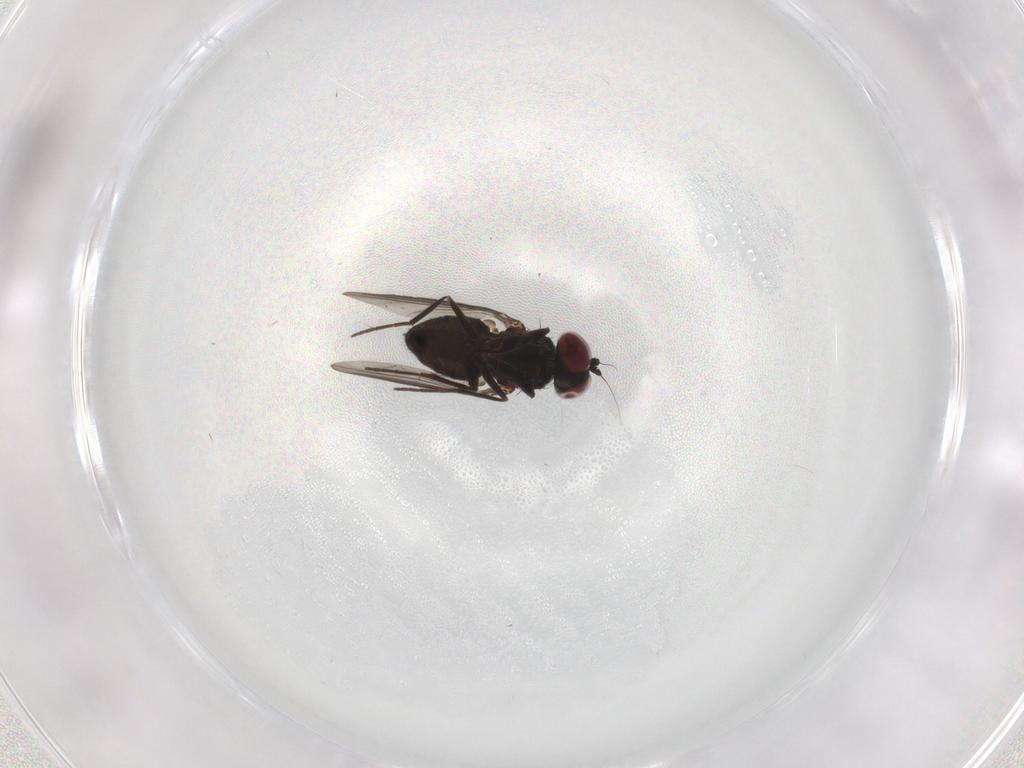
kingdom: Animalia
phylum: Arthropoda
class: Insecta
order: Diptera
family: Dolichopodidae
